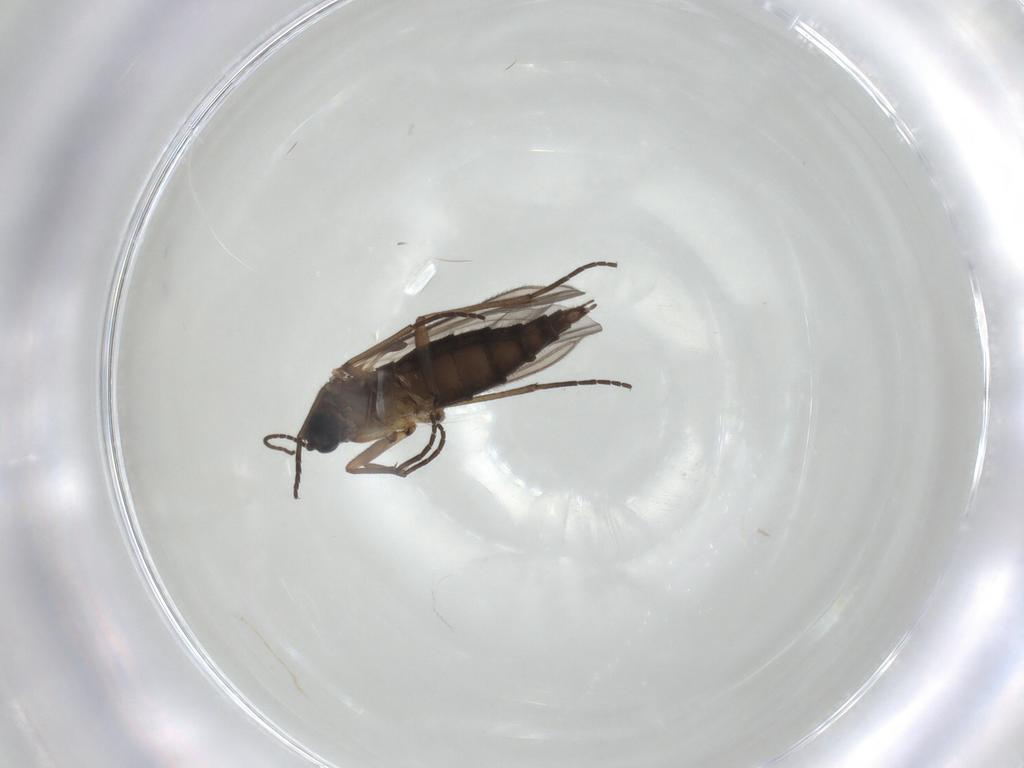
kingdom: Animalia
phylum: Arthropoda
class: Insecta
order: Diptera
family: Sciaridae
